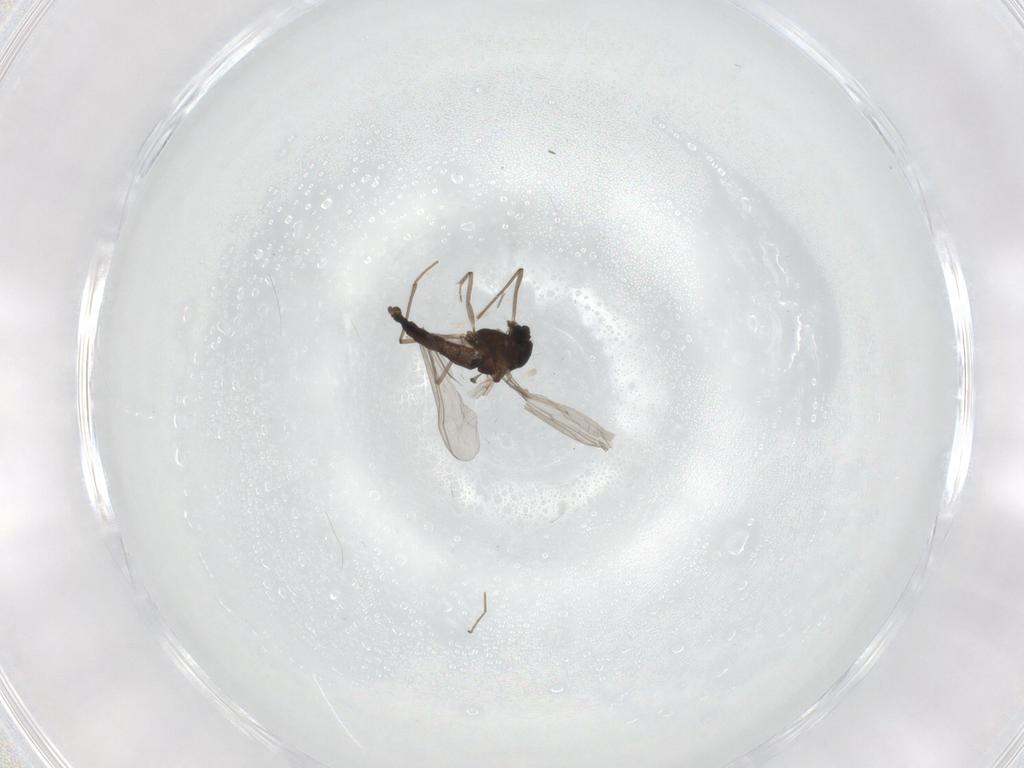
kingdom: Animalia
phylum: Arthropoda
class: Insecta
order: Diptera
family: Chironomidae
